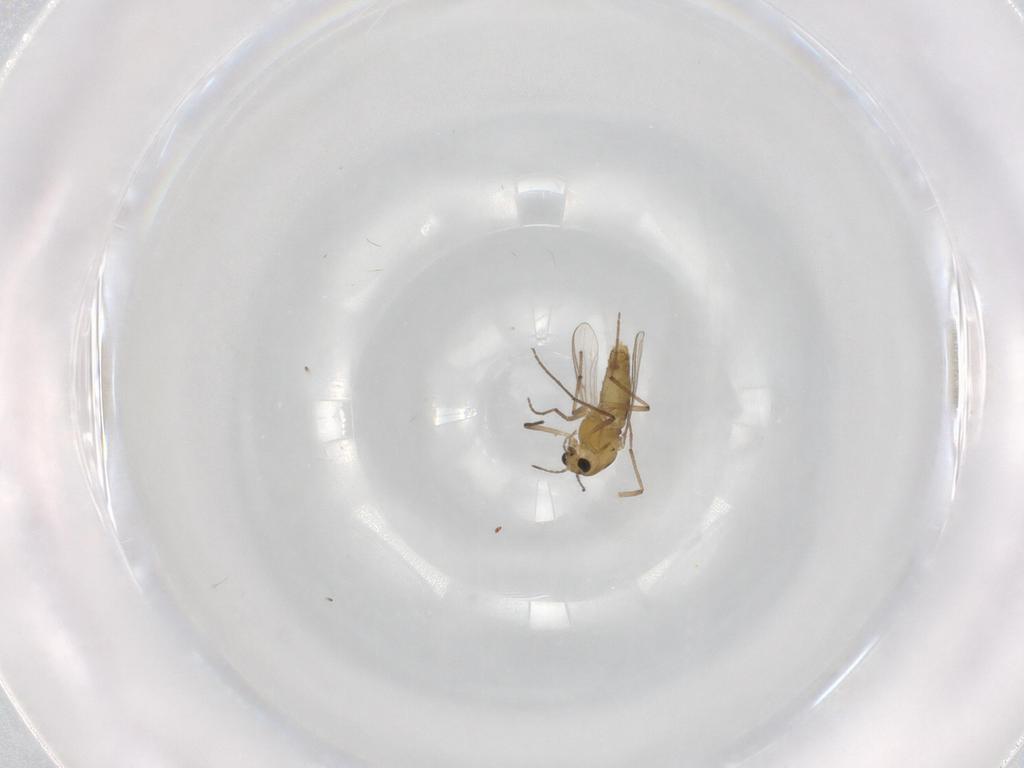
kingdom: Animalia
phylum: Arthropoda
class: Insecta
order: Diptera
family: Chironomidae
